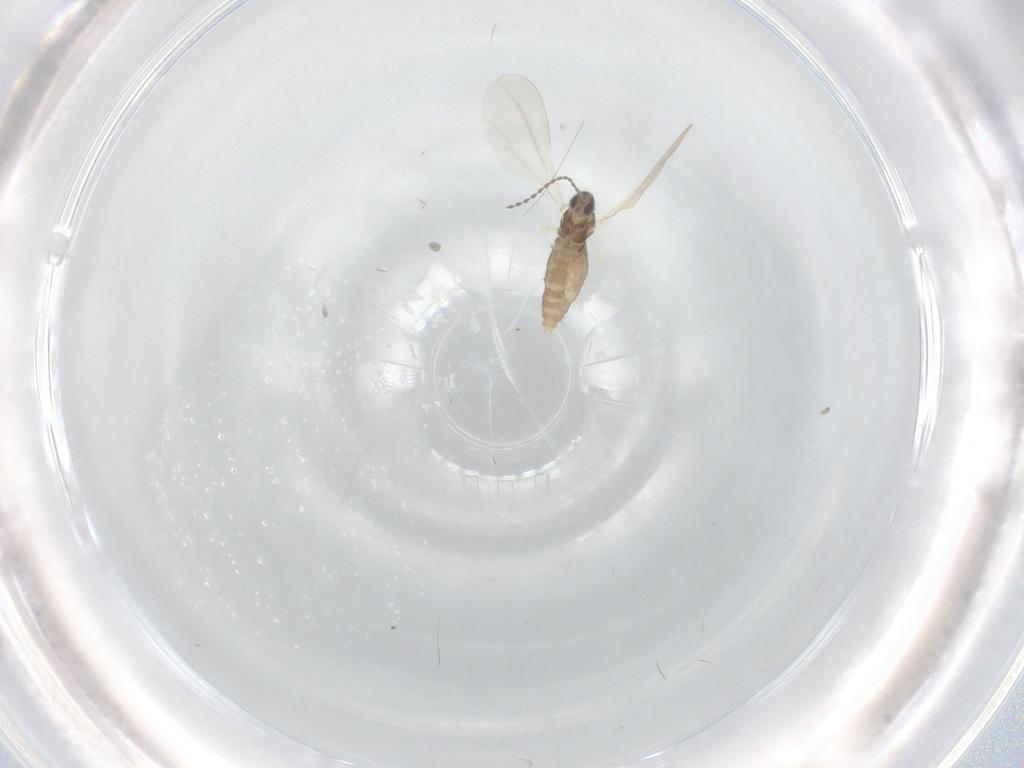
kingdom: Animalia
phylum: Arthropoda
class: Insecta
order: Diptera
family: Cecidomyiidae
